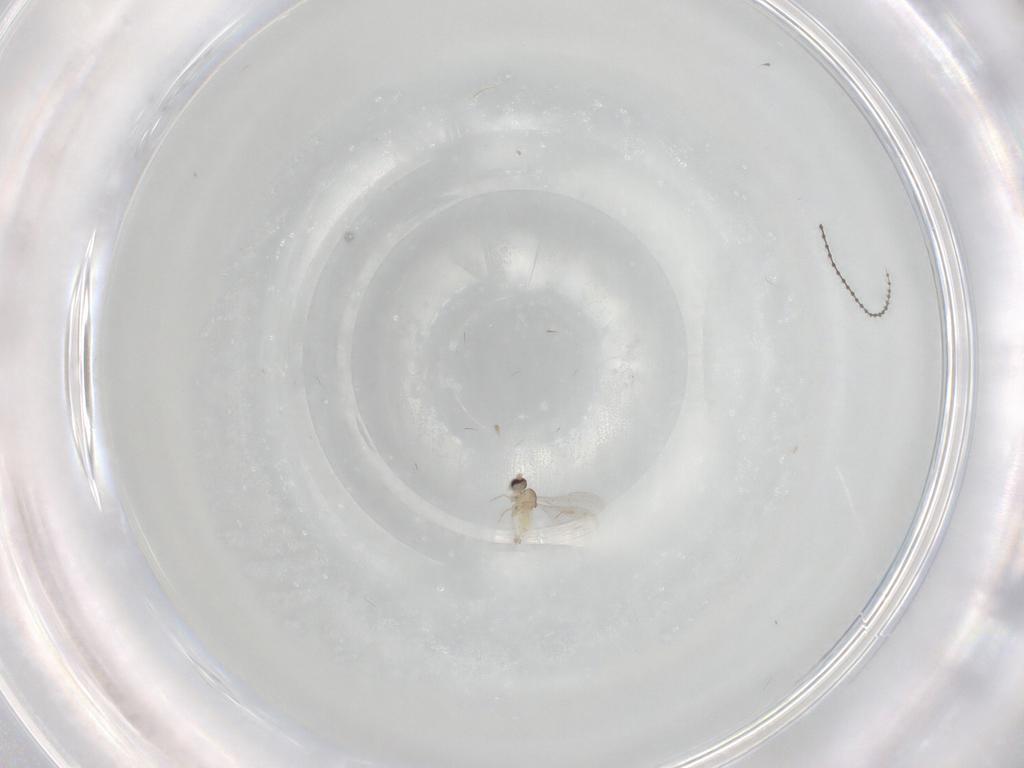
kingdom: Animalia
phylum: Arthropoda
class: Insecta
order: Diptera
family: Cecidomyiidae
